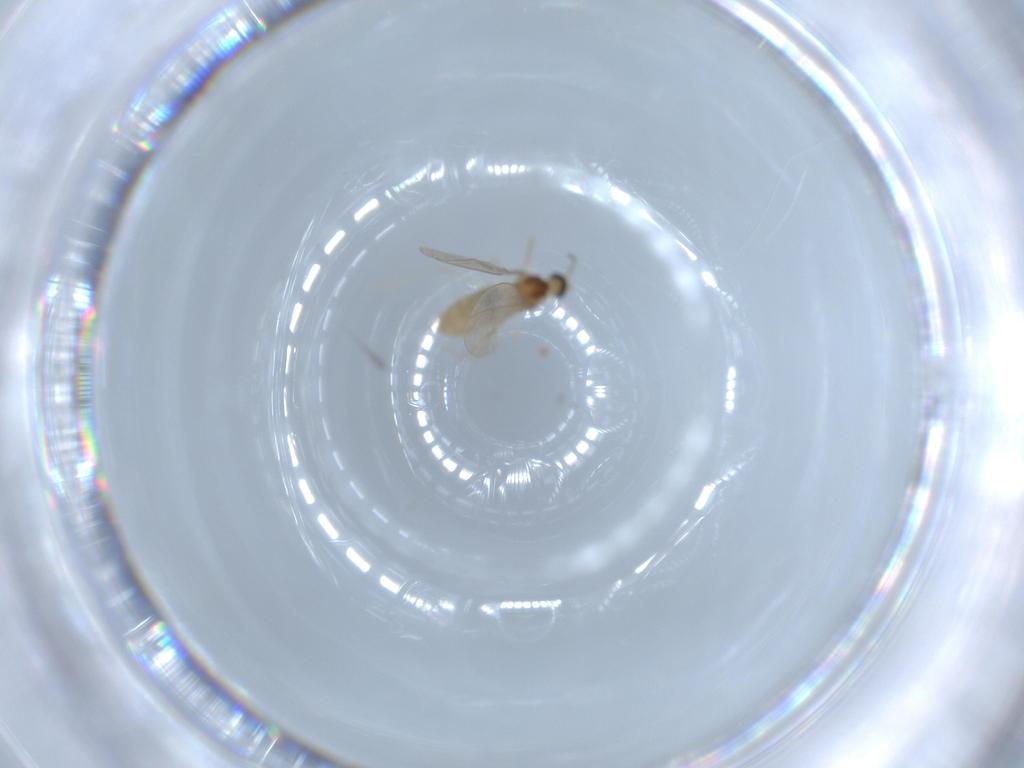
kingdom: Animalia
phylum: Arthropoda
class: Insecta
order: Diptera
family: Cecidomyiidae
